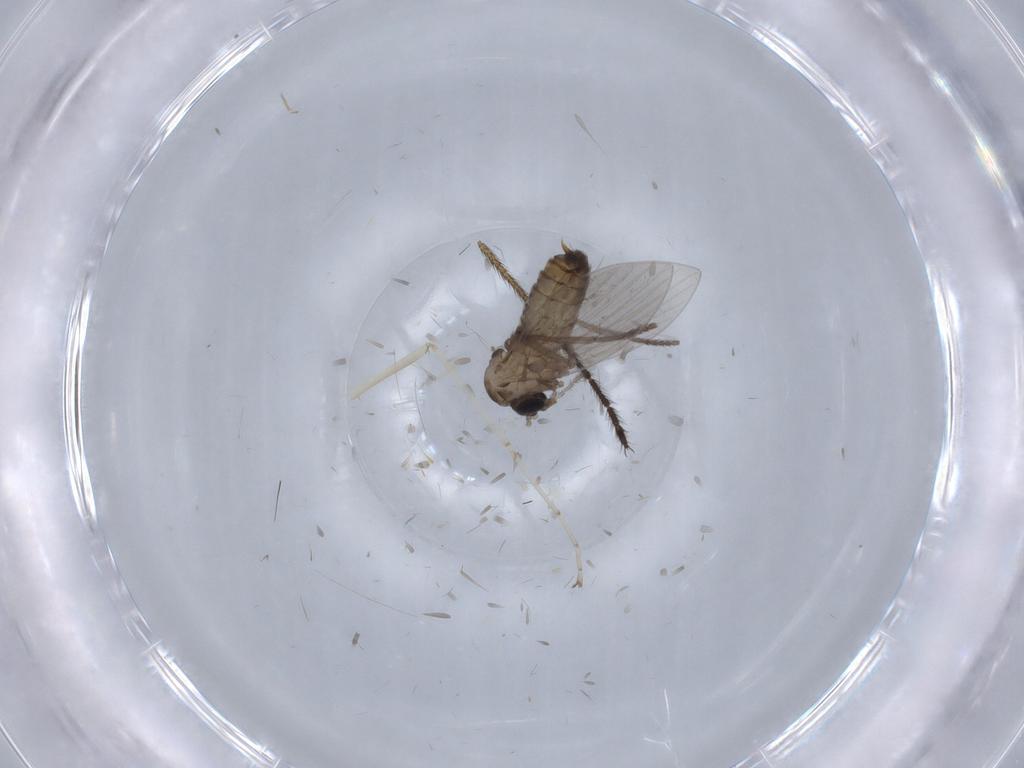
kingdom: Animalia
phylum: Arthropoda
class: Insecta
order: Diptera
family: Drosophilidae
